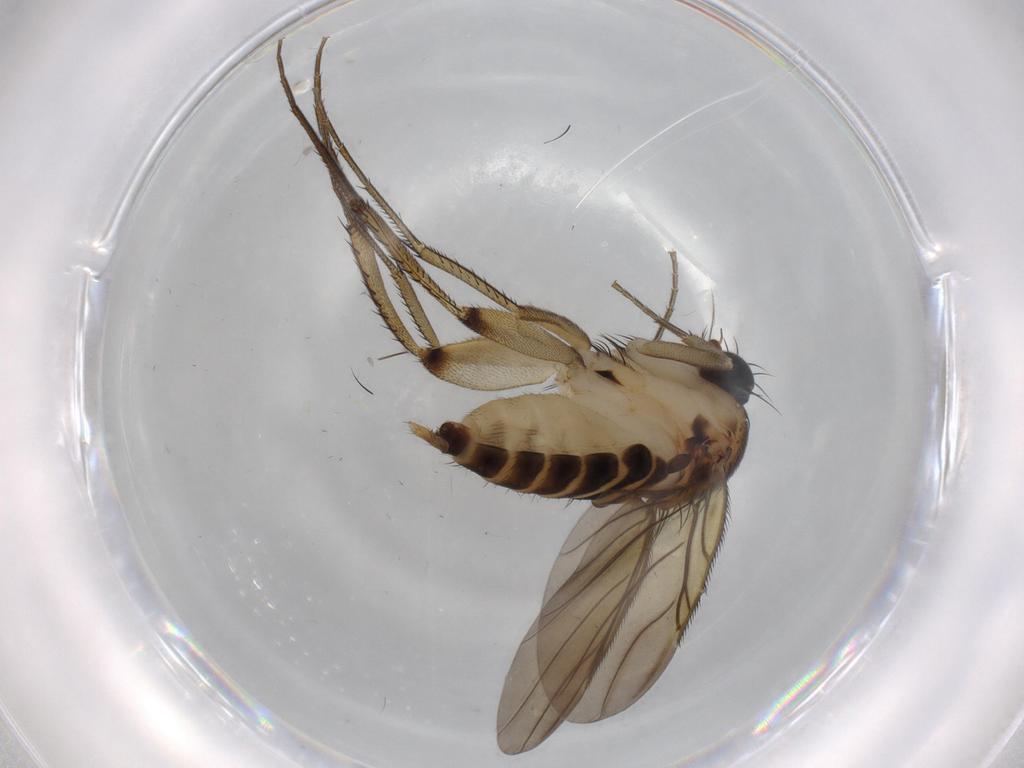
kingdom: Animalia
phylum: Arthropoda
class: Insecta
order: Diptera
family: Phoridae
